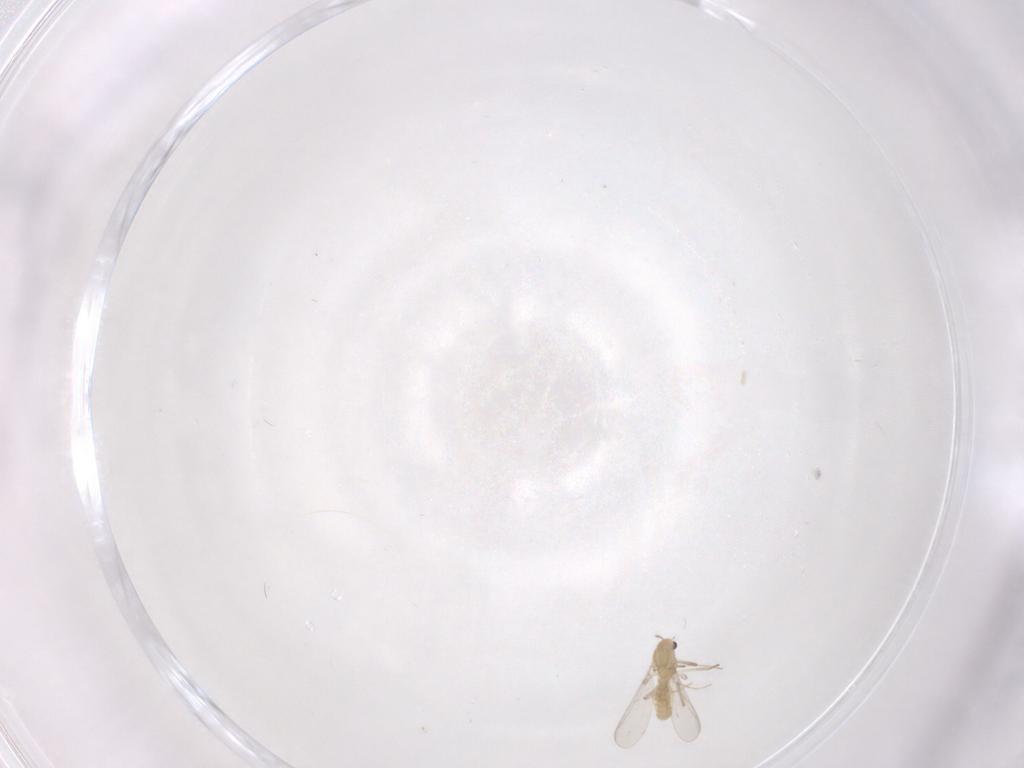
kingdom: Animalia
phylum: Arthropoda
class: Insecta
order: Diptera
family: Chironomidae
